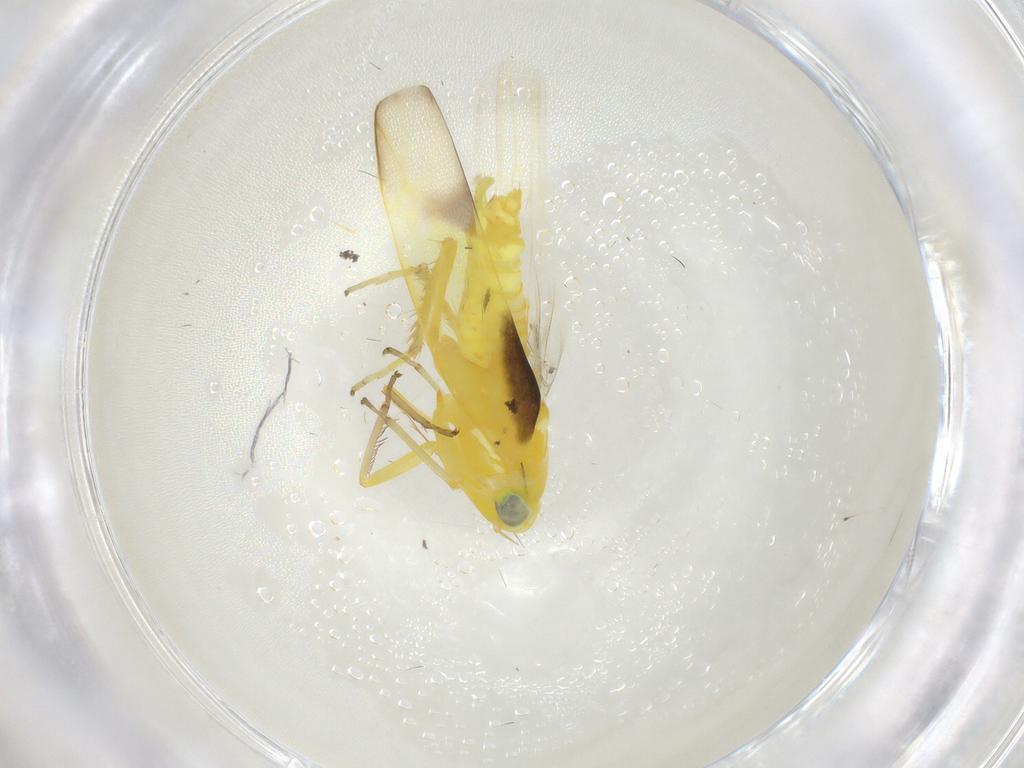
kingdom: Animalia
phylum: Arthropoda
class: Insecta
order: Hemiptera
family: Cicadellidae
